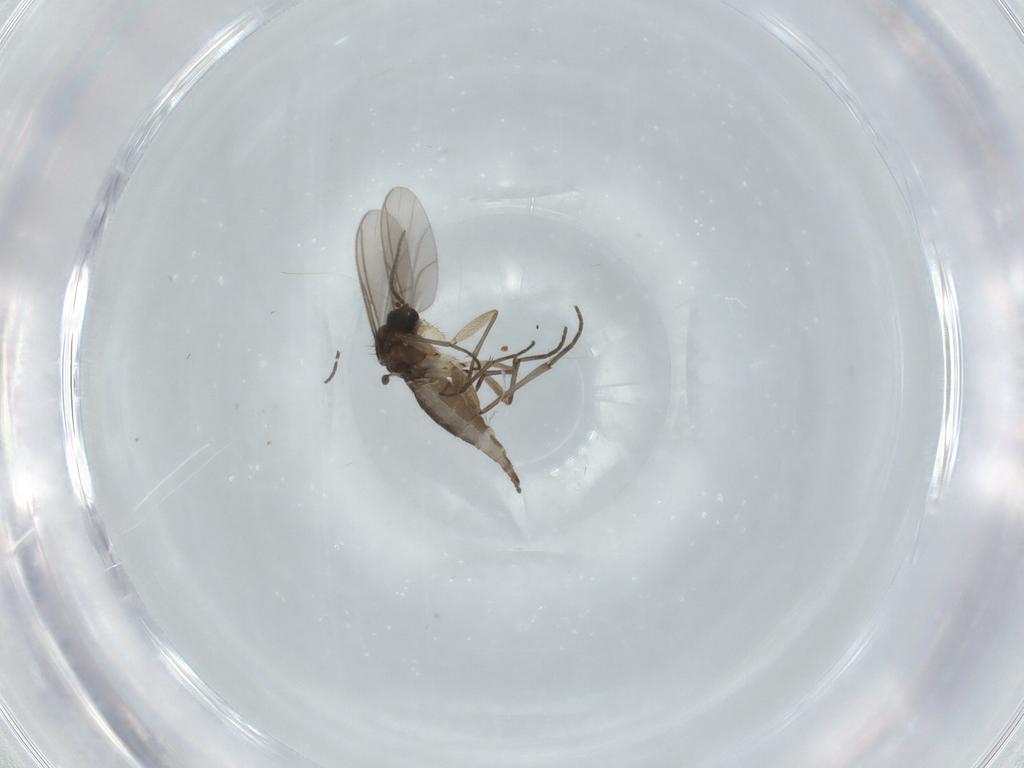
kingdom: Animalia
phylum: Arthropoda
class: Insecta
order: Diptera
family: Sciaridae
